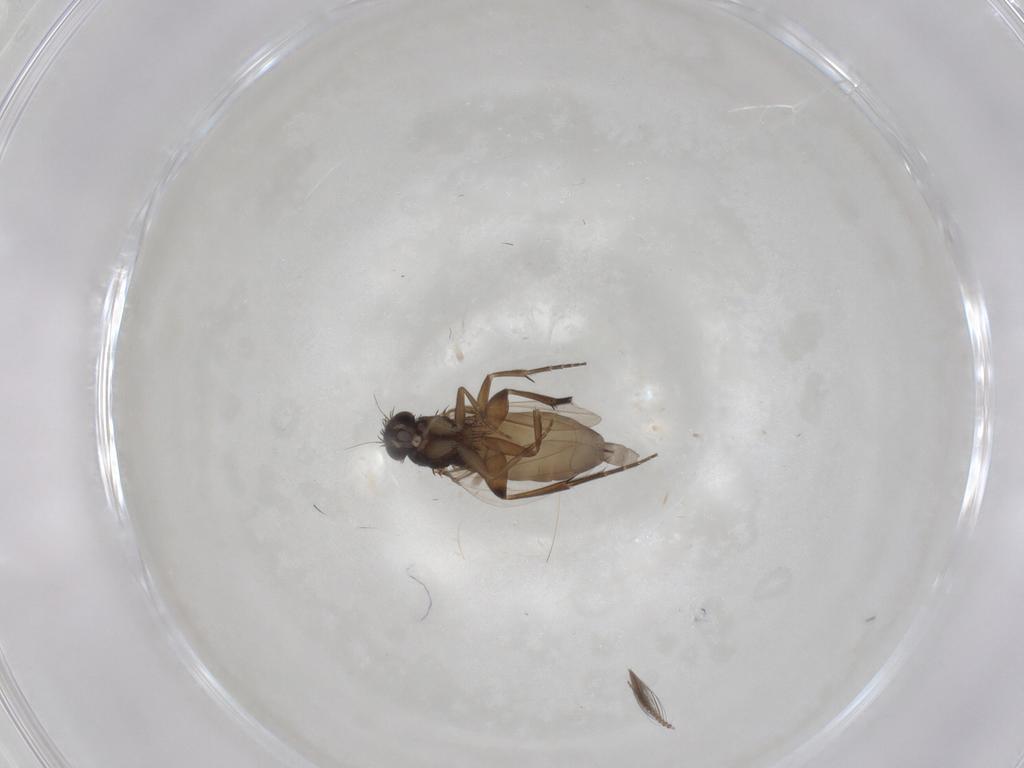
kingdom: Animalia
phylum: Arthropoda
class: Insecta
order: Diptera
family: Phoridae
